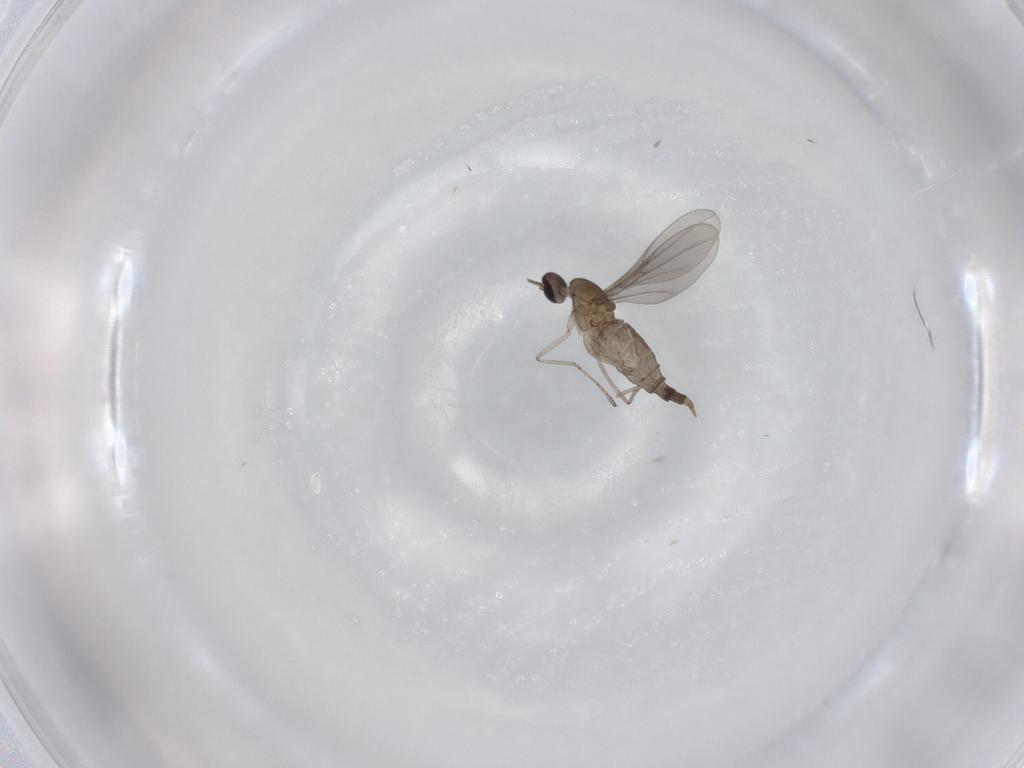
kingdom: Animalia
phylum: Arthropoda
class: Insecta
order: Diptera
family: Cecidomyiidae
